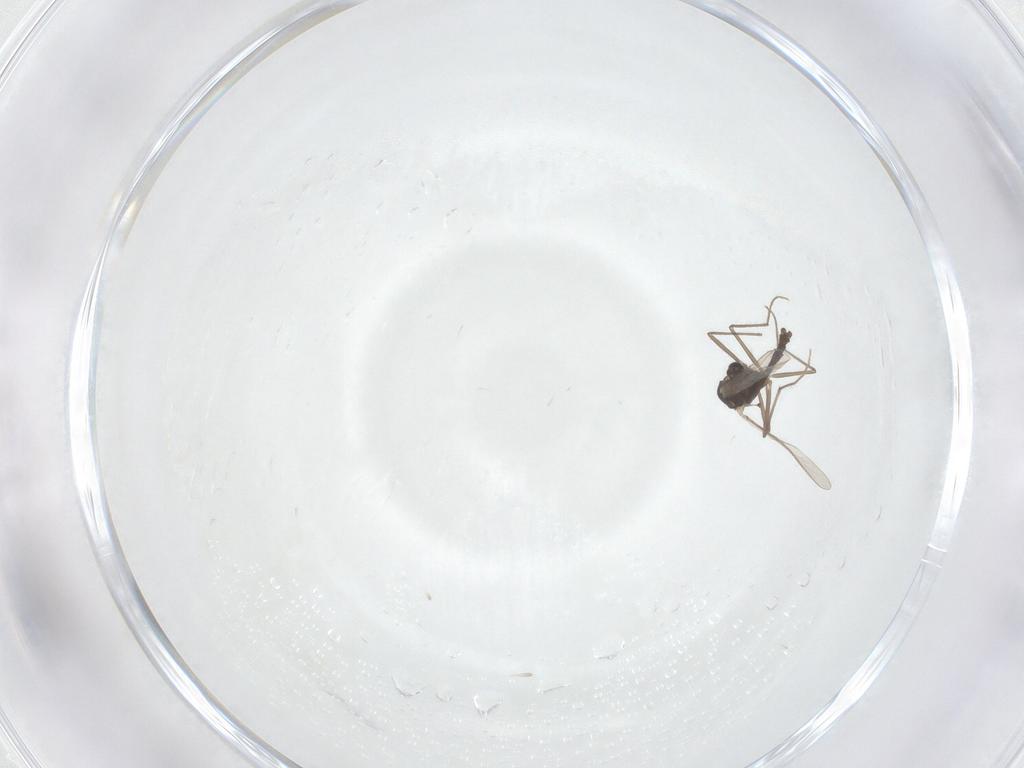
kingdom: Animalia
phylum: Arthropoda
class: Insecta
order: Diptera
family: Chironomidae
